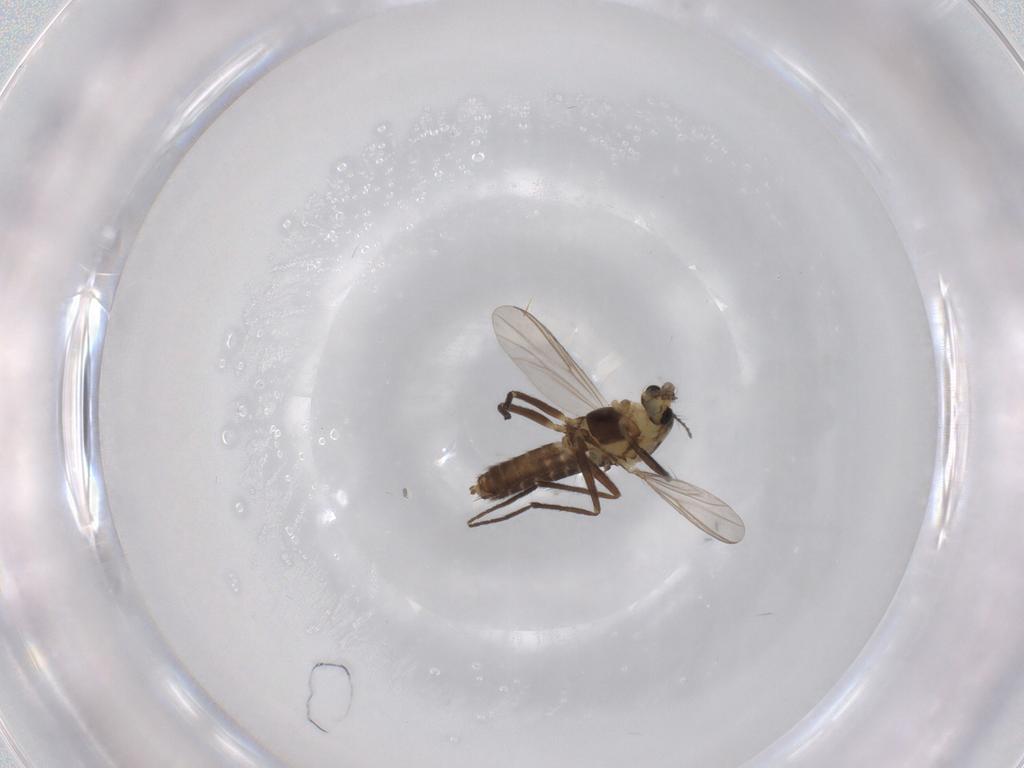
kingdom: Animalia
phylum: Arthropoda
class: Insecta
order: Diptera
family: Chironomidae
